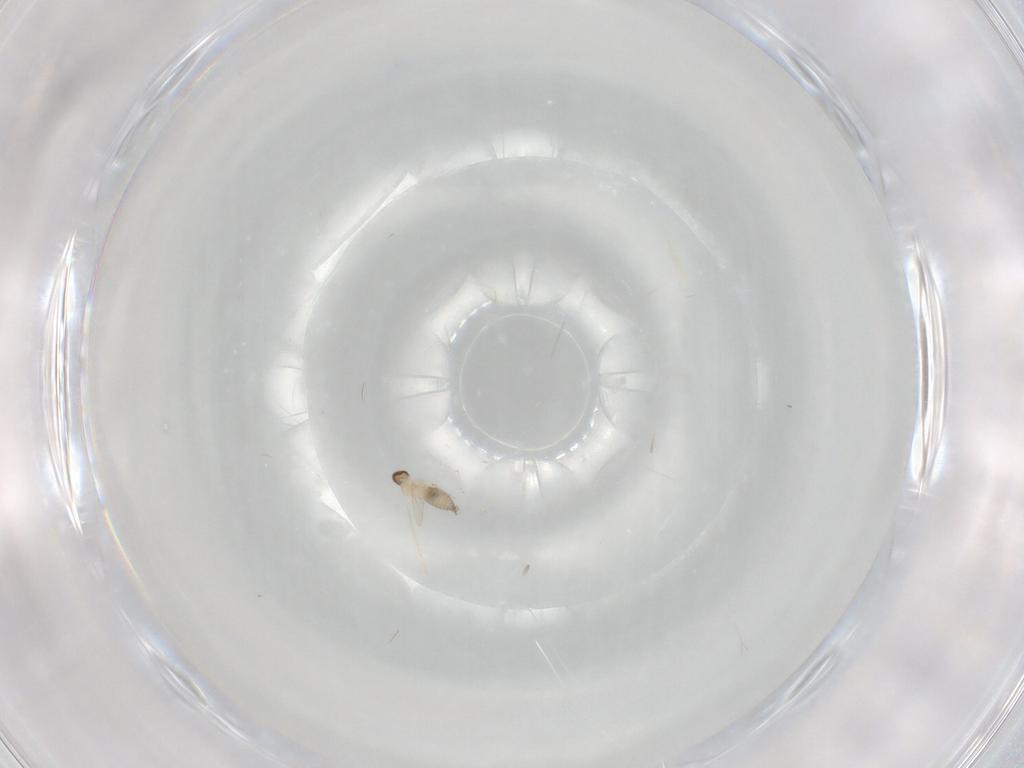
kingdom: Animalia
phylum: Arthropoda
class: Insecta
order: Diptera
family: Cecidomyiidae
